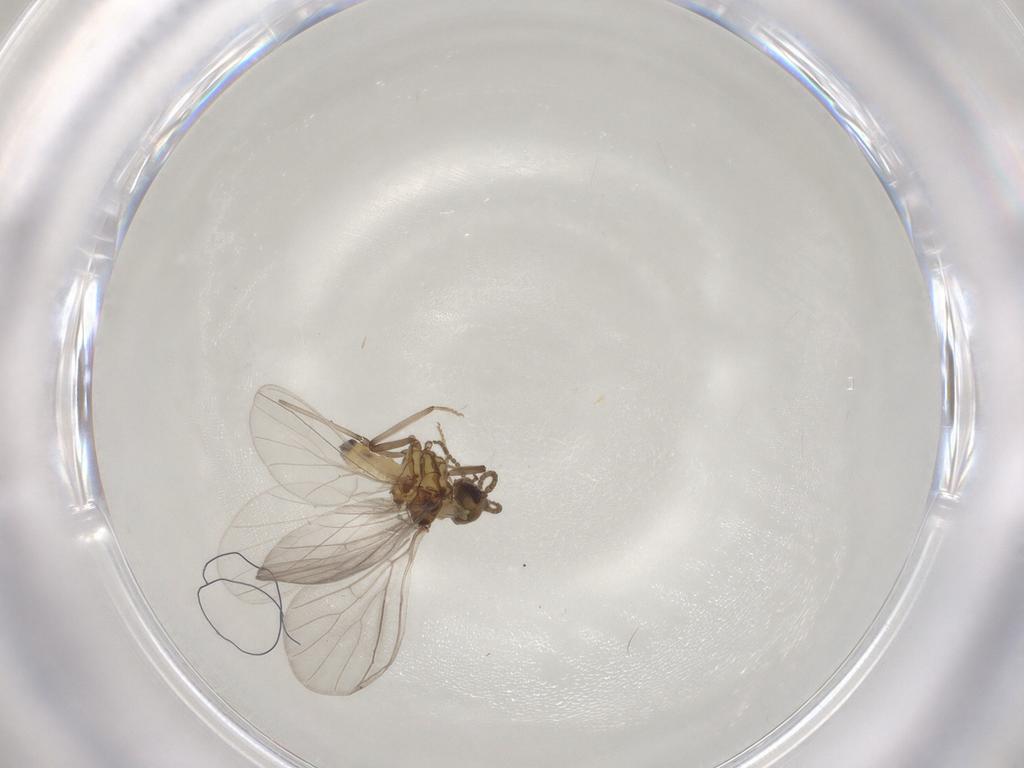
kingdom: Animalia
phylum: Arthropoda
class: Insecta
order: Neuroptera
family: Coniopterygidae
